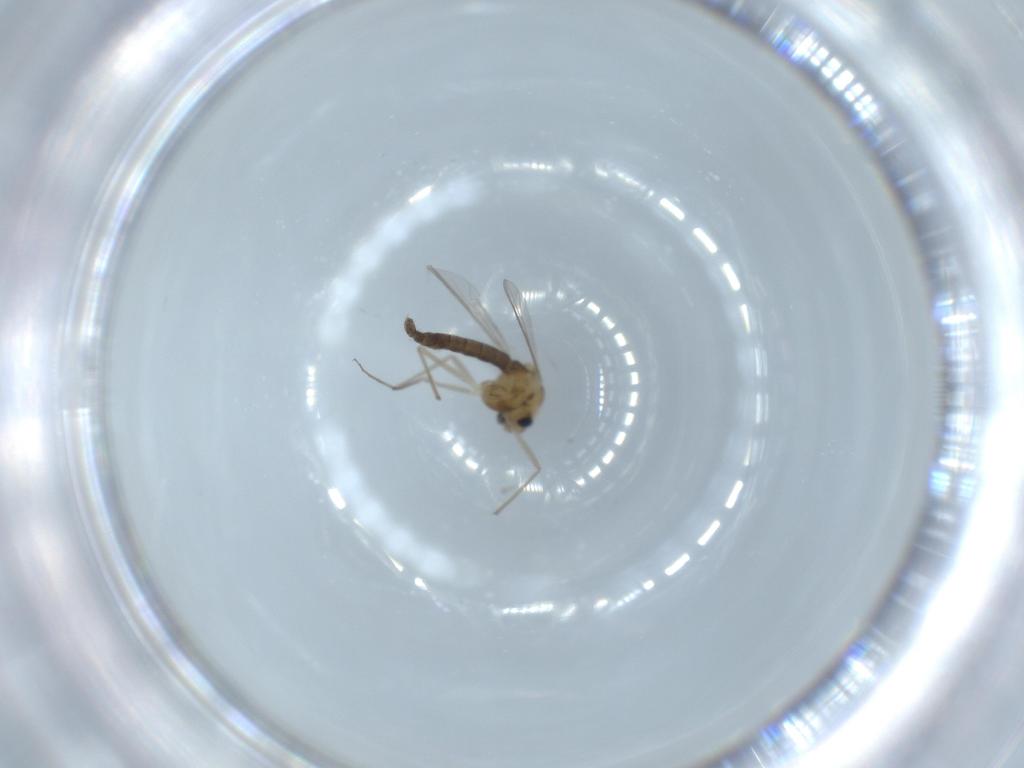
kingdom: Animalia
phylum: Arthropoda
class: Insecta
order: Diptera
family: Chironomidae
